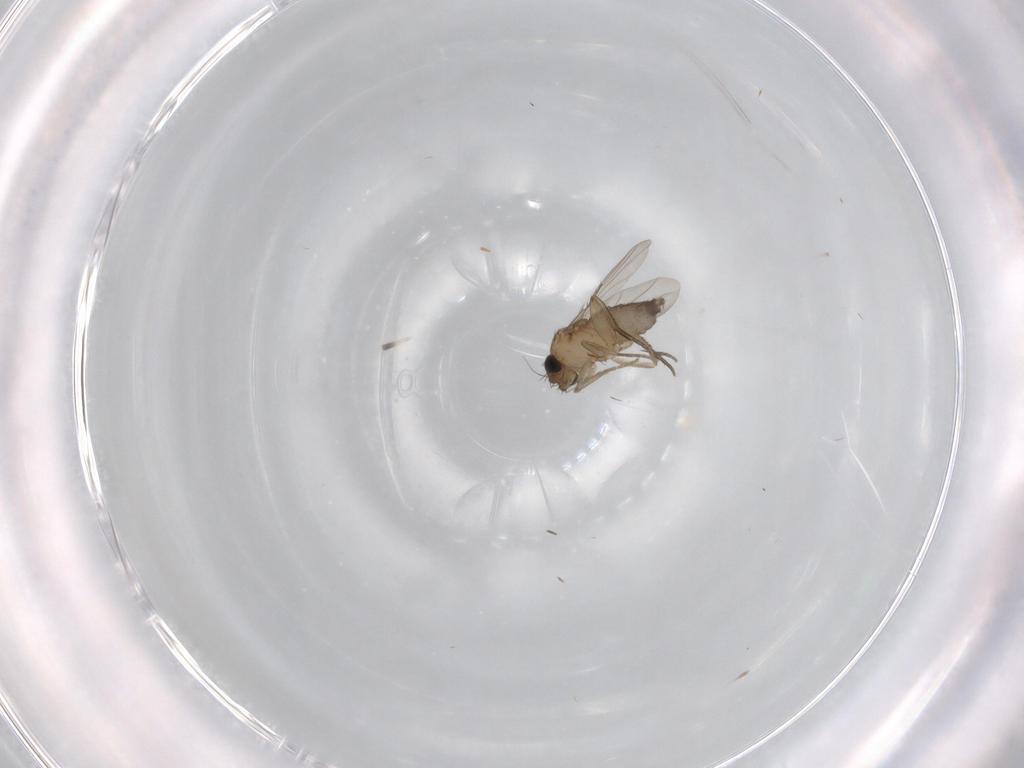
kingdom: Animalia
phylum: Arthropoda
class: Insecta
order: Diptera
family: Phoridae
